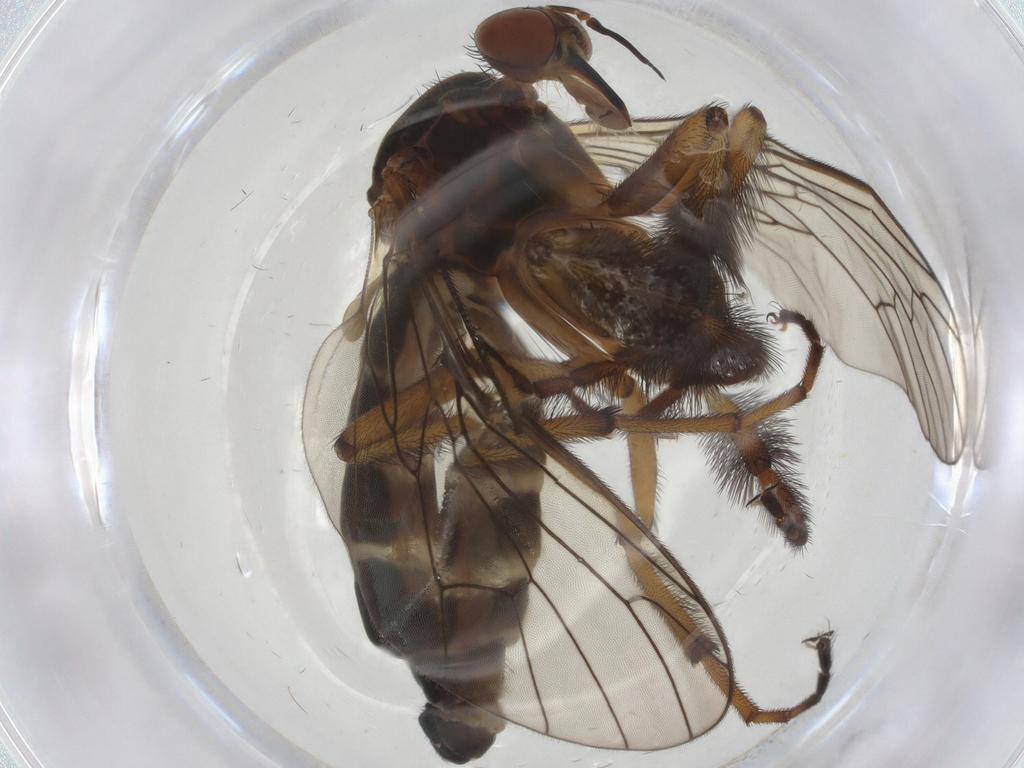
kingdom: Animalia
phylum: Arthropoda
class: Insecta
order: Diptera
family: Empididae
